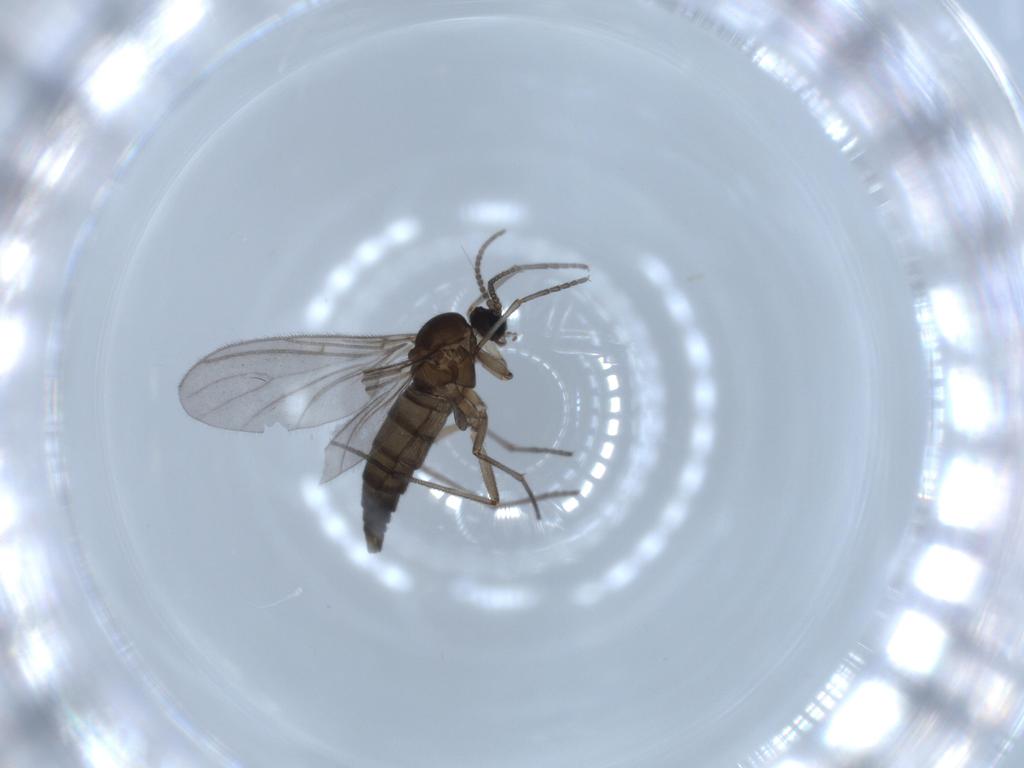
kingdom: Animalia
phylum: Arthropoda
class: Insecta
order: Diptera
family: Sciaridae
